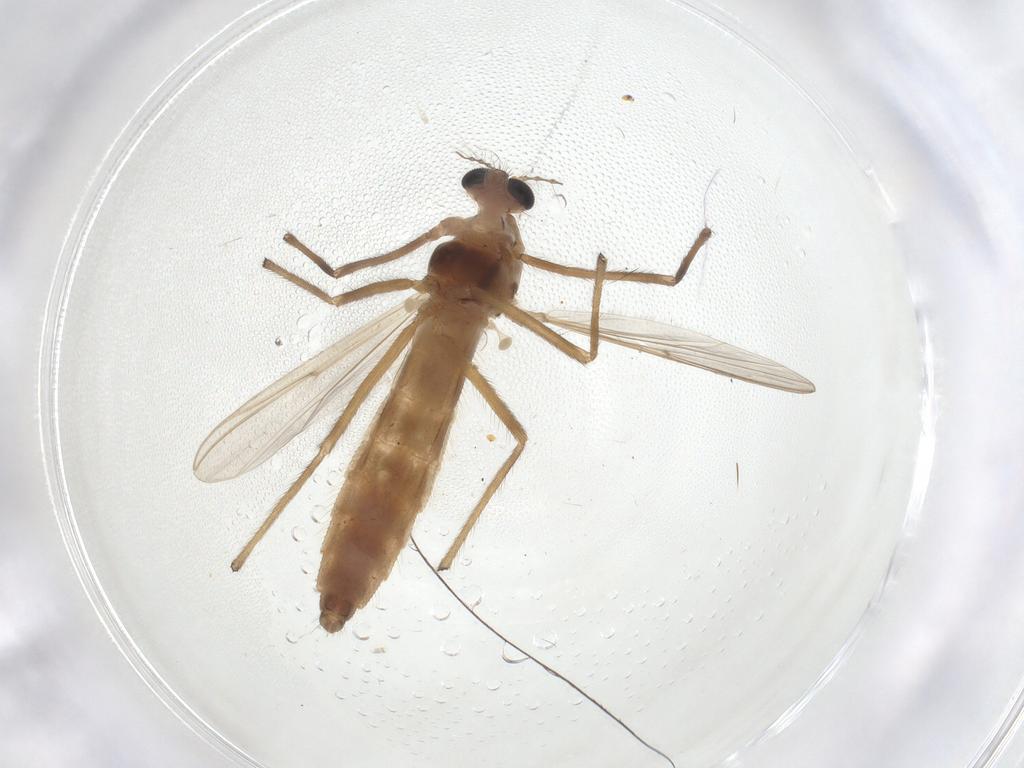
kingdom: Animalia
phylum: Arthropoda
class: Insecta
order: Diptera
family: Chironomidae
